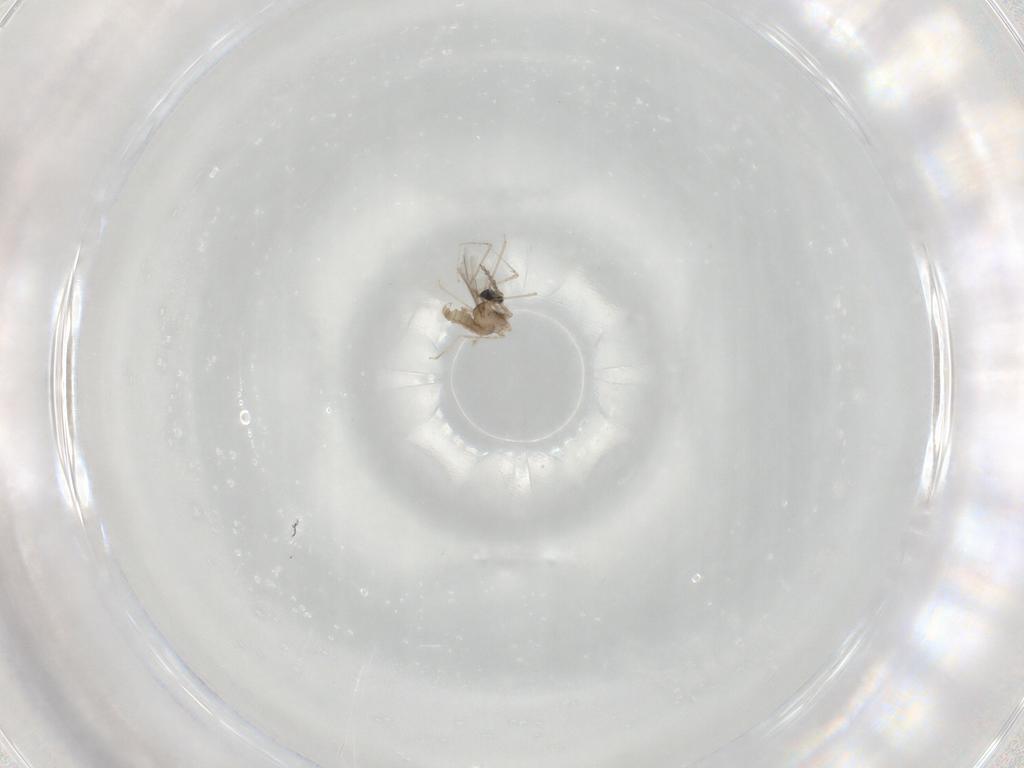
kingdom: Animalia
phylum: Arthropoda
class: Insecta
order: Diptera
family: Cecidomyiidae
